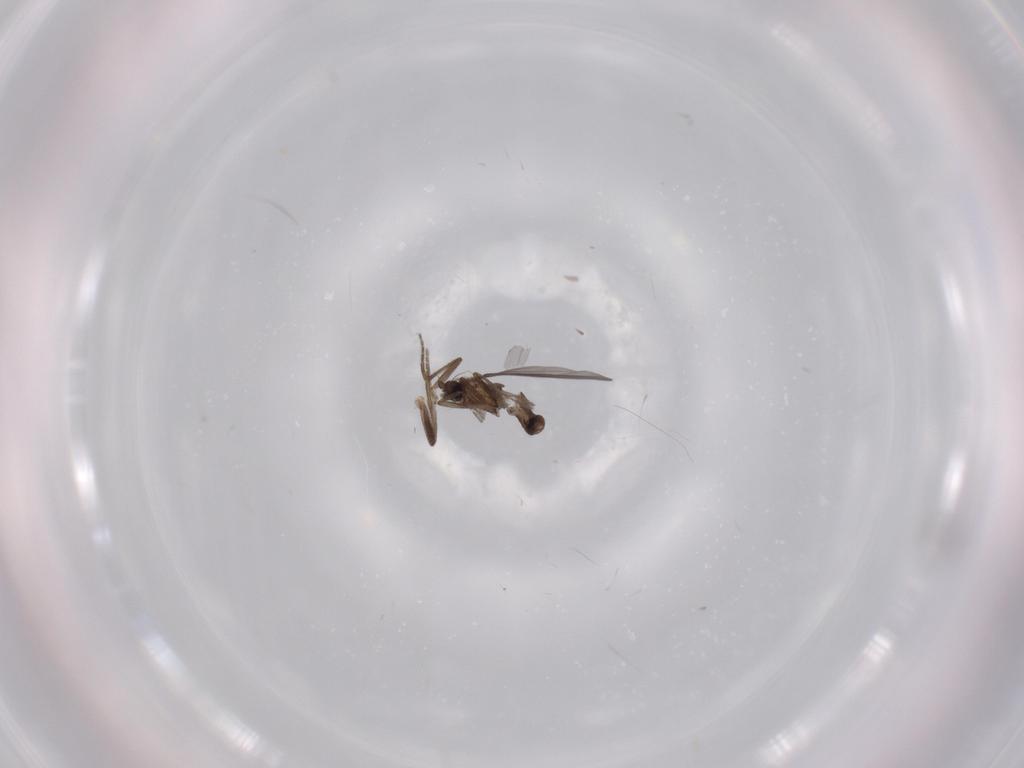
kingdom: Animalia
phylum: Arthropoda
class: Insecta
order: Diptera
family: Phoridae
